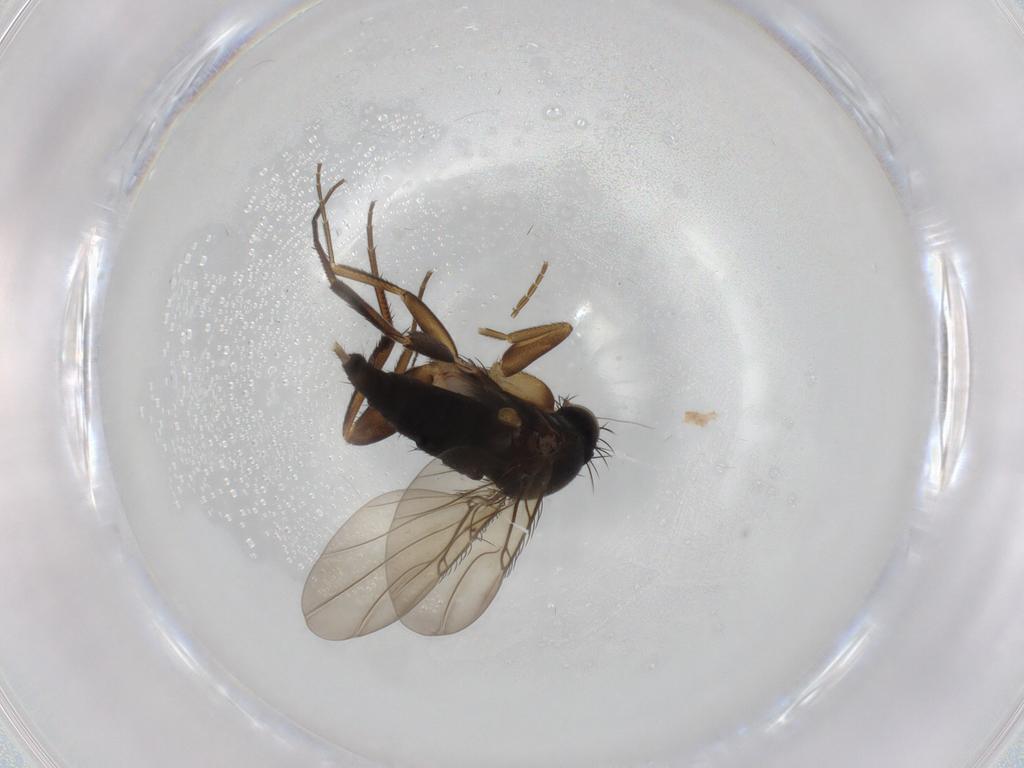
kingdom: Animalia
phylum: Arthropoda
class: Insecta
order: Diptera
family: Phoridae
